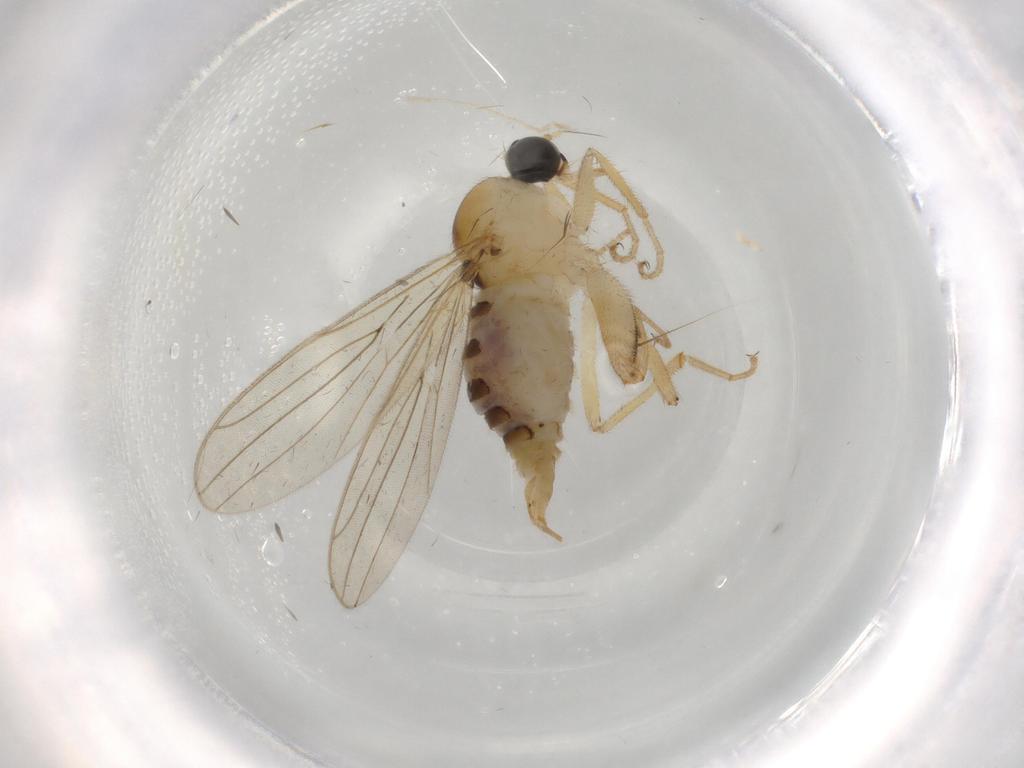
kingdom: Animalia
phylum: Arthropoda
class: Insecta
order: Diptera
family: Hybotidae
